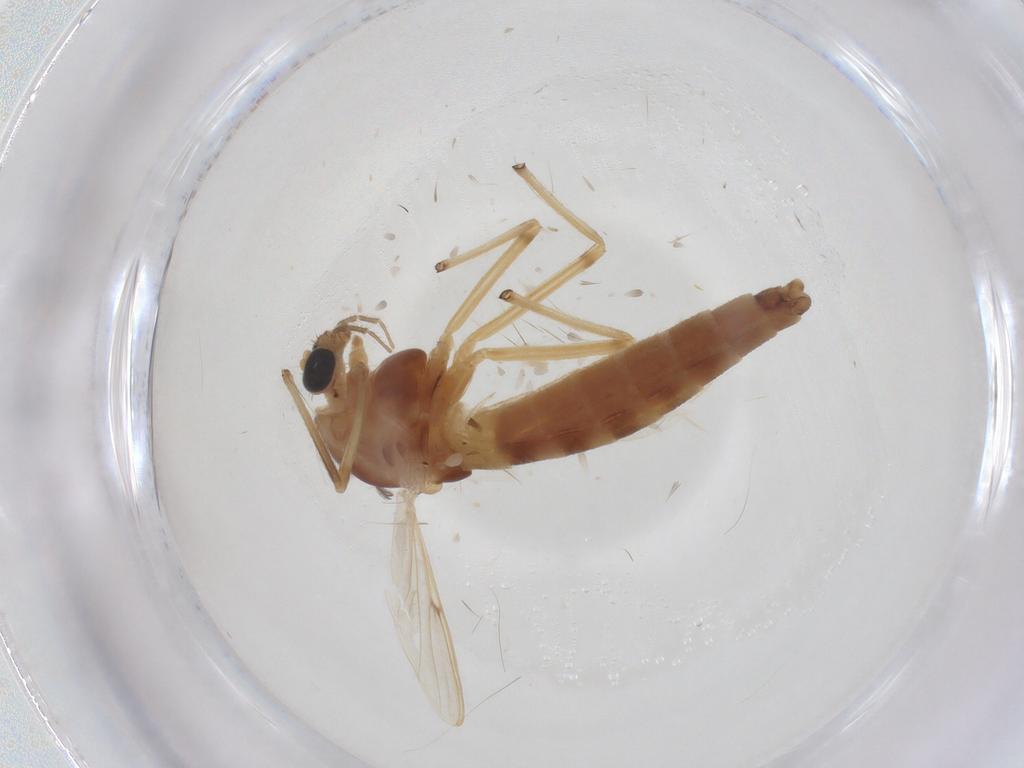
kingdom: Animalia
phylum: Arthropoda
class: Insecta
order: Diptera
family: Chironomidae
